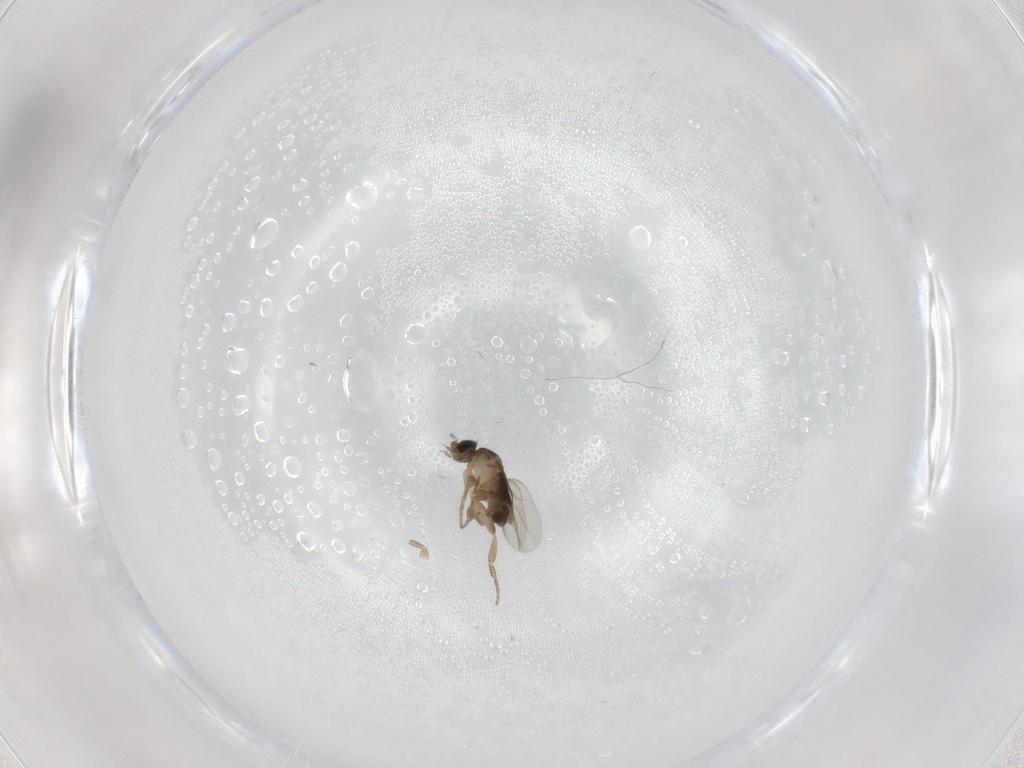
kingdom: Animalia
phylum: Arthropoda
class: Insecta
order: Diptera
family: Phoridae
